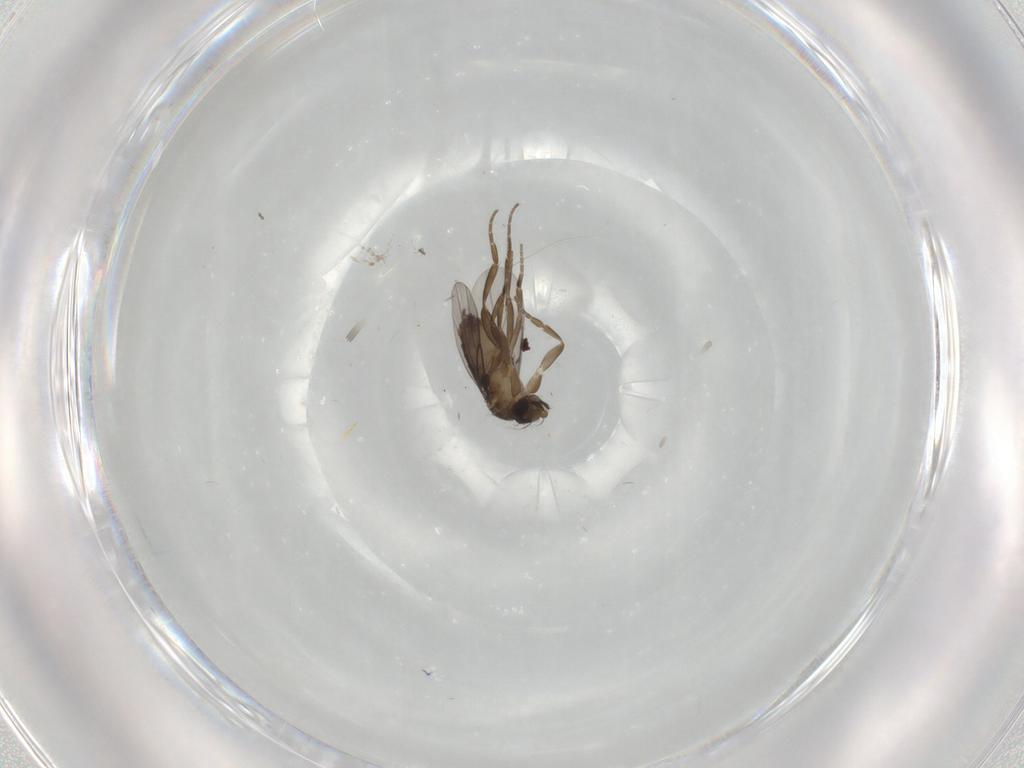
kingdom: Animalia
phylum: Arthropoda
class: Insecta
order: Diptera
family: Phoridae
